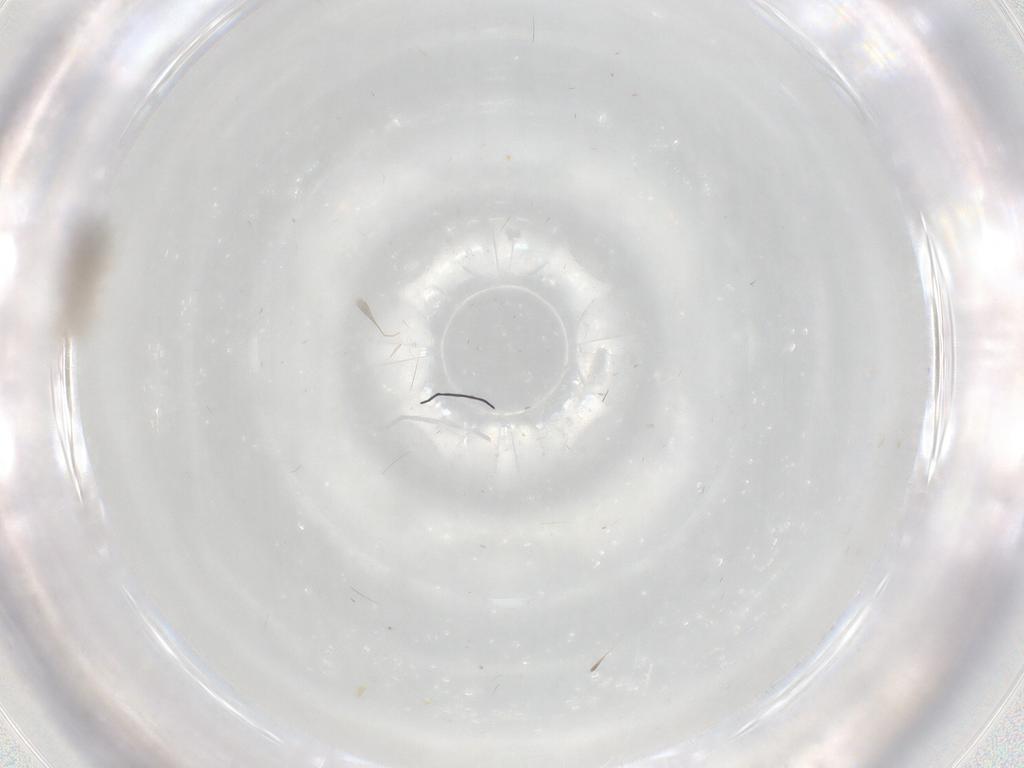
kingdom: Animalia
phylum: Arthropoda
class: Insecta
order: Diptera
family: Cecidomyiidae
